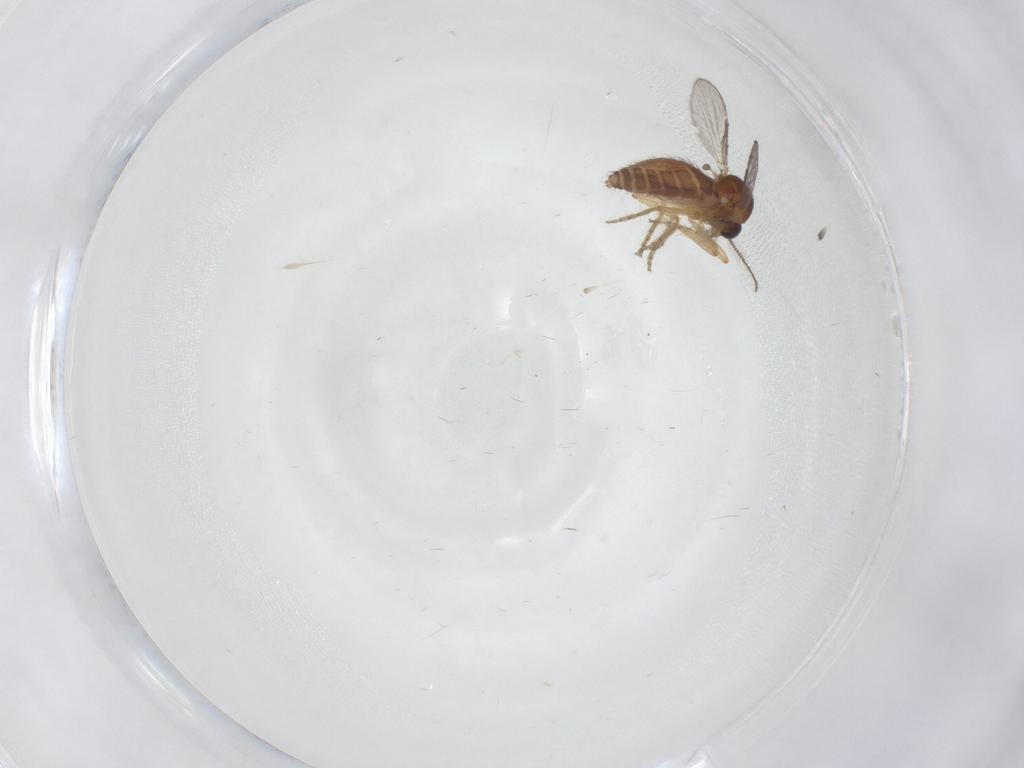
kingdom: Animalia
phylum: Arthropoda
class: Insecta
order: Diptera
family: Ceratopogonidae
